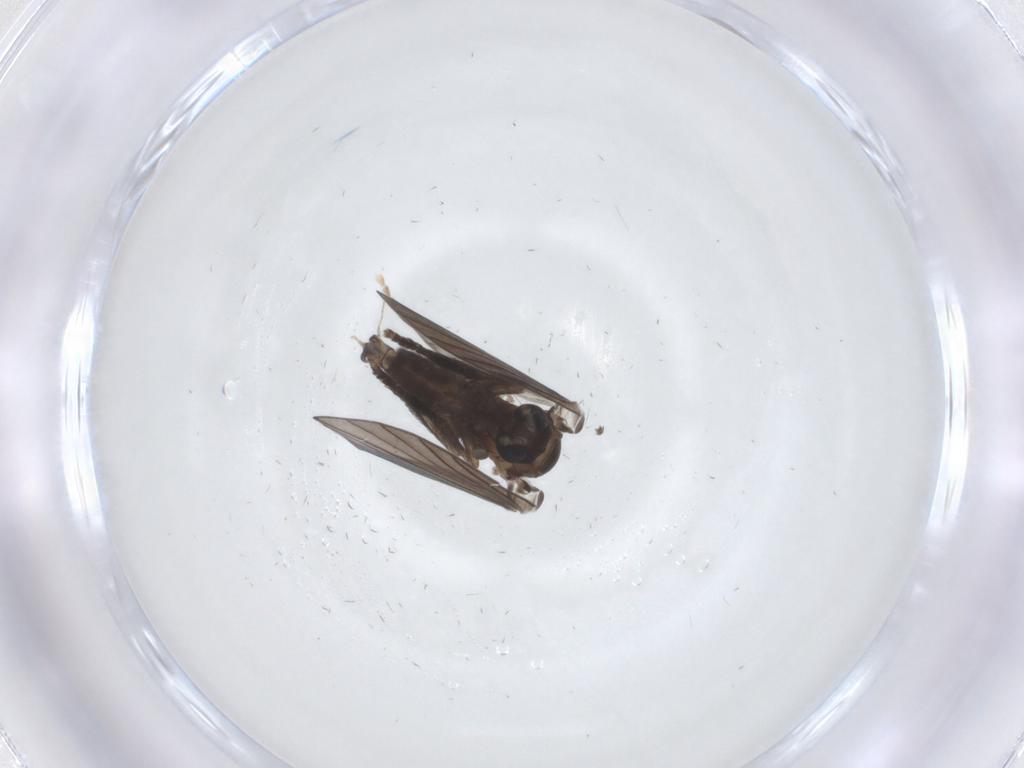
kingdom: Animalia
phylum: Arthropoda
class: Insecta
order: Diptera
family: Psychodidae
